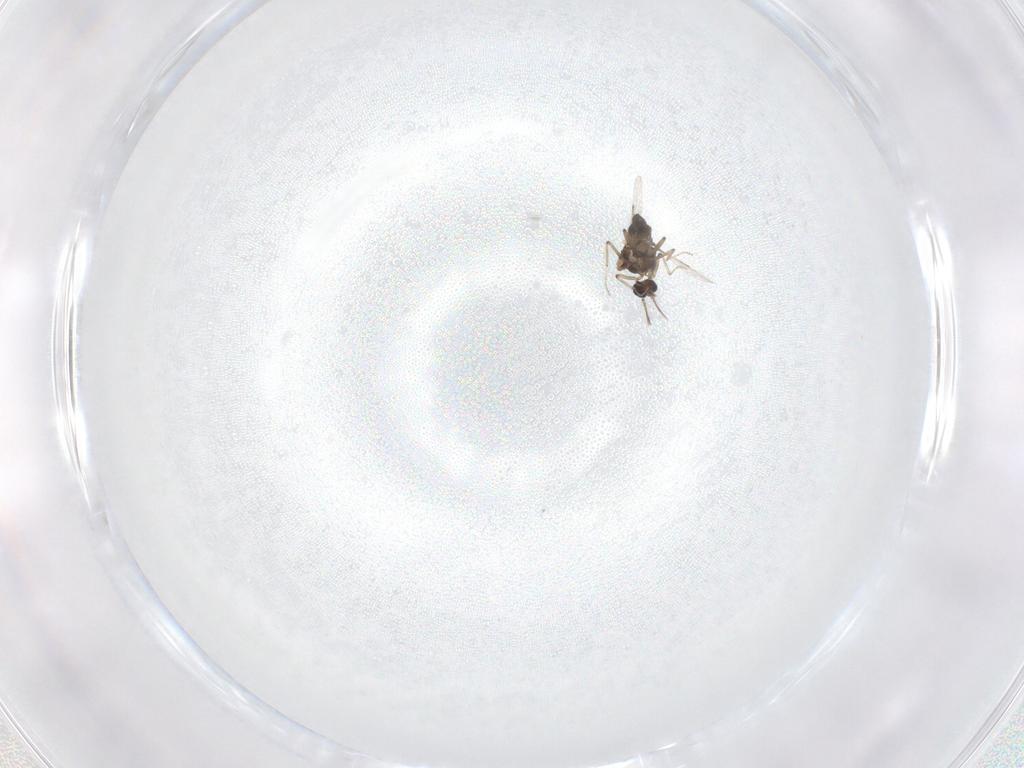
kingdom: Animalia
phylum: Arthropoda
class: Insecta
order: Diptera
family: Ceratopogonidae
